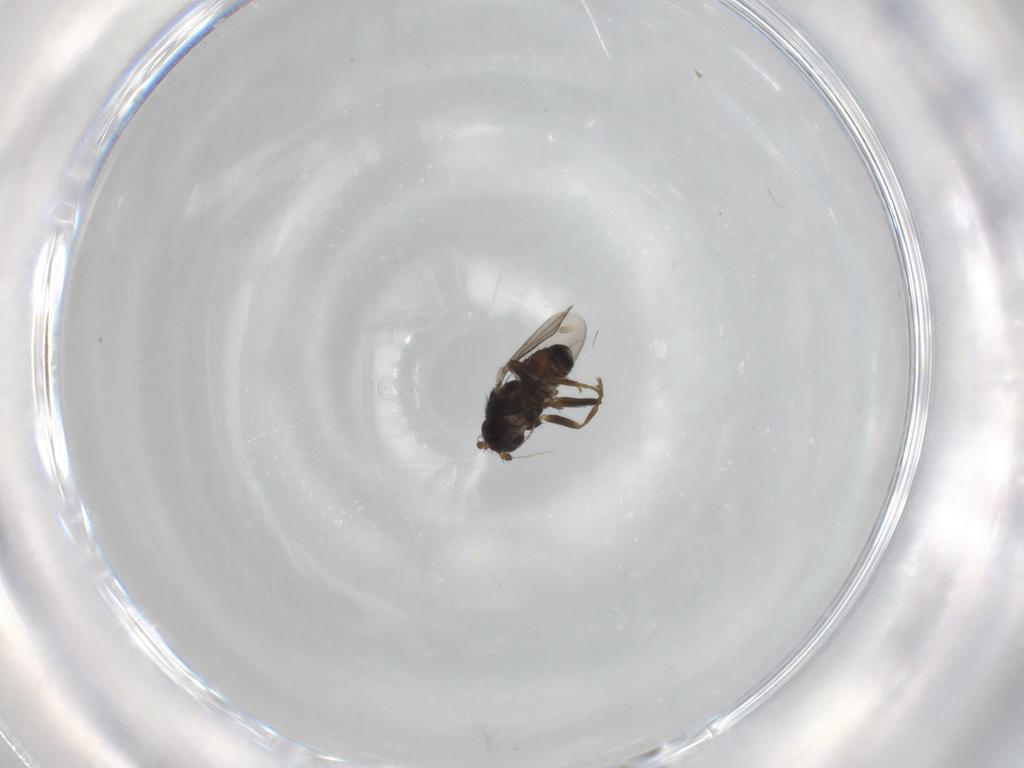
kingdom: Animalia
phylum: Arthropoda
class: Insecta
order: Diptera
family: Sphaeroceridae
